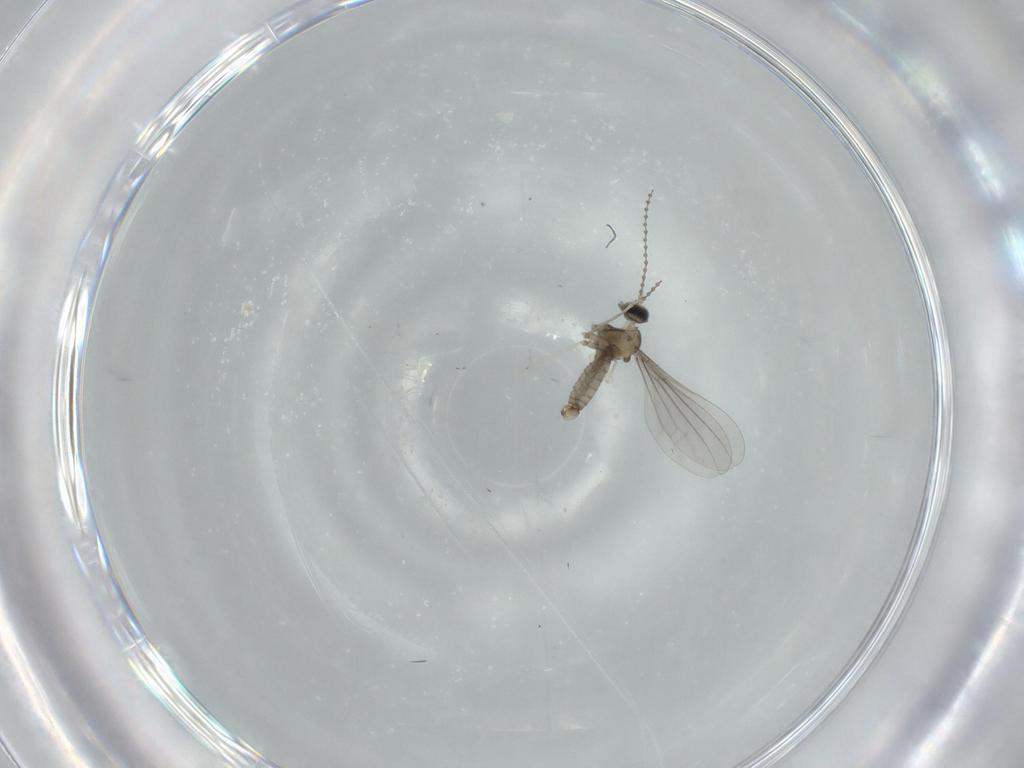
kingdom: Animalia
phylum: Arthropoda
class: Insecta
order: Diptera
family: Cecidomyiidae
